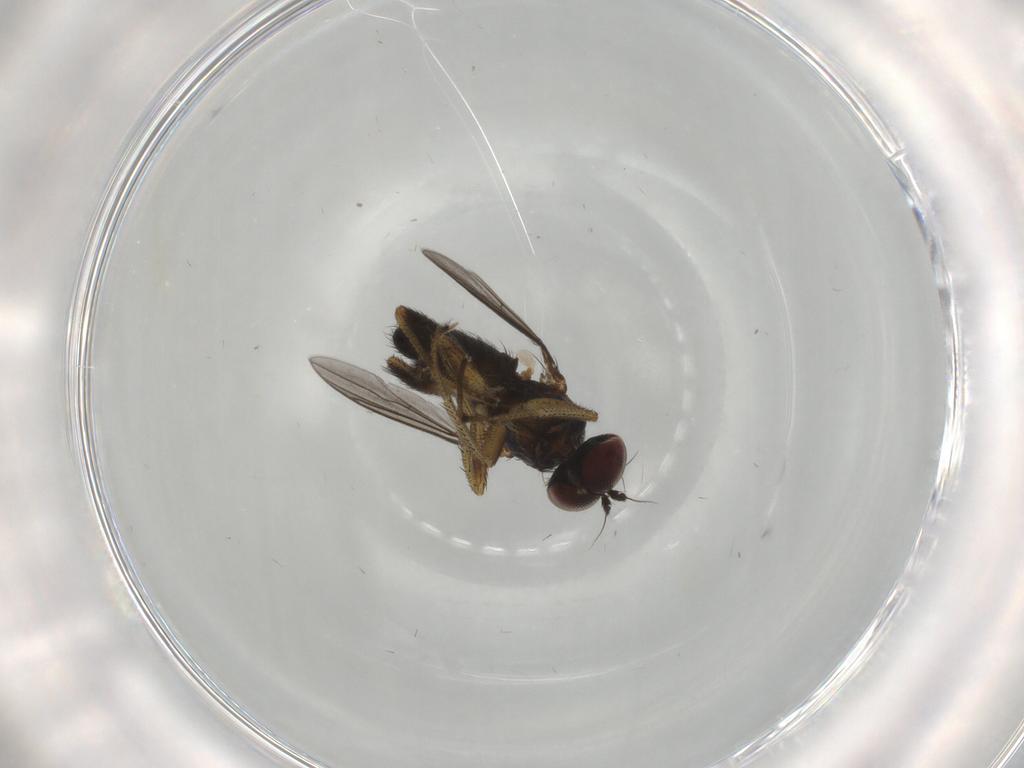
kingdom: Animalia
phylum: Arthropoda
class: Insecta
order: Diptera
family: Dolichopodidae
